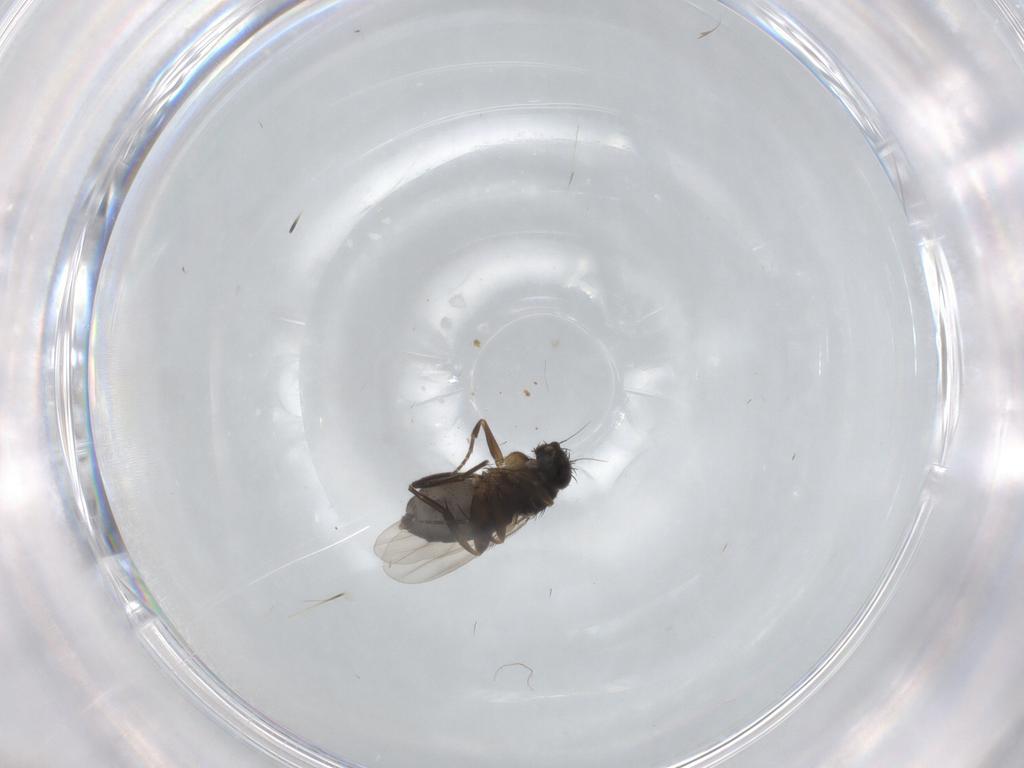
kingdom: Animalia
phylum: Arthropoda
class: Insecta
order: Diptera
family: Phoridae
